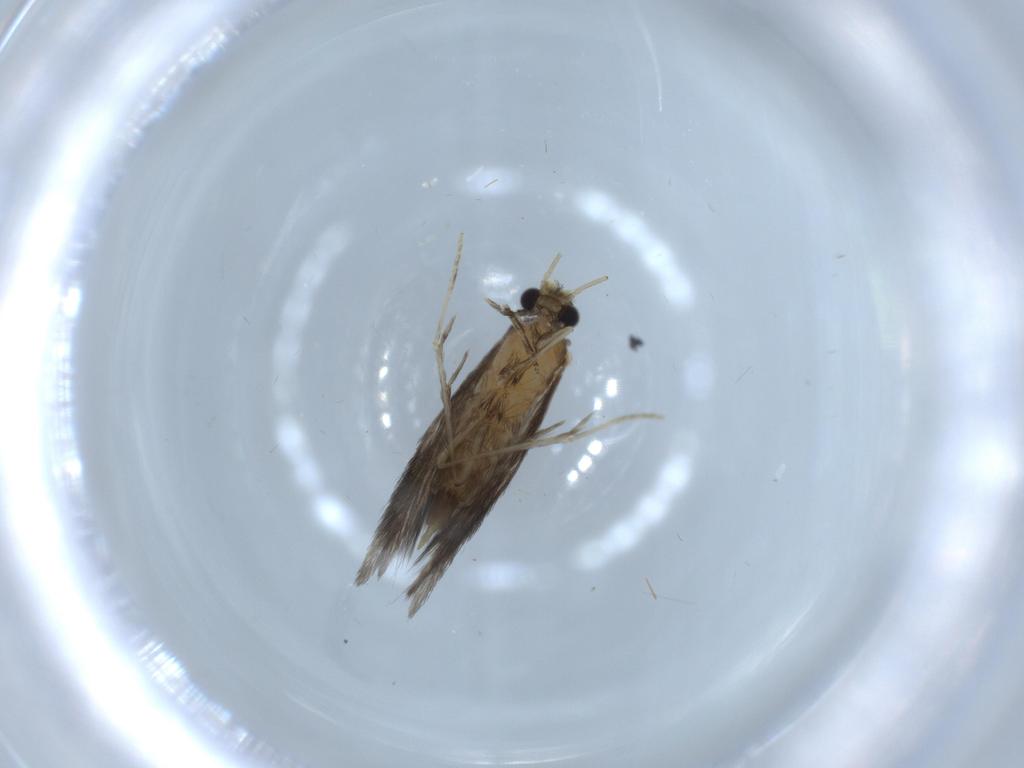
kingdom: Animalia
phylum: Arthropoda
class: Insecta
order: Trichoptera
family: Hydroptilidae
